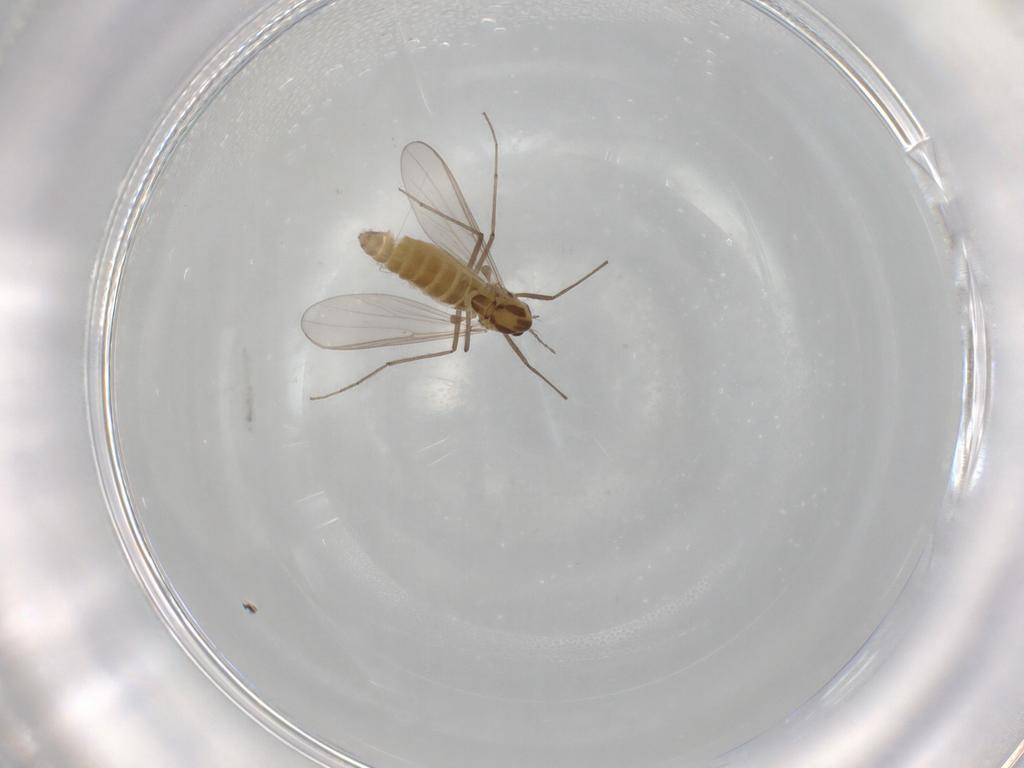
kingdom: Animalia
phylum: Arthropoda
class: Insecta
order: Diptera
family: Chironomidae
